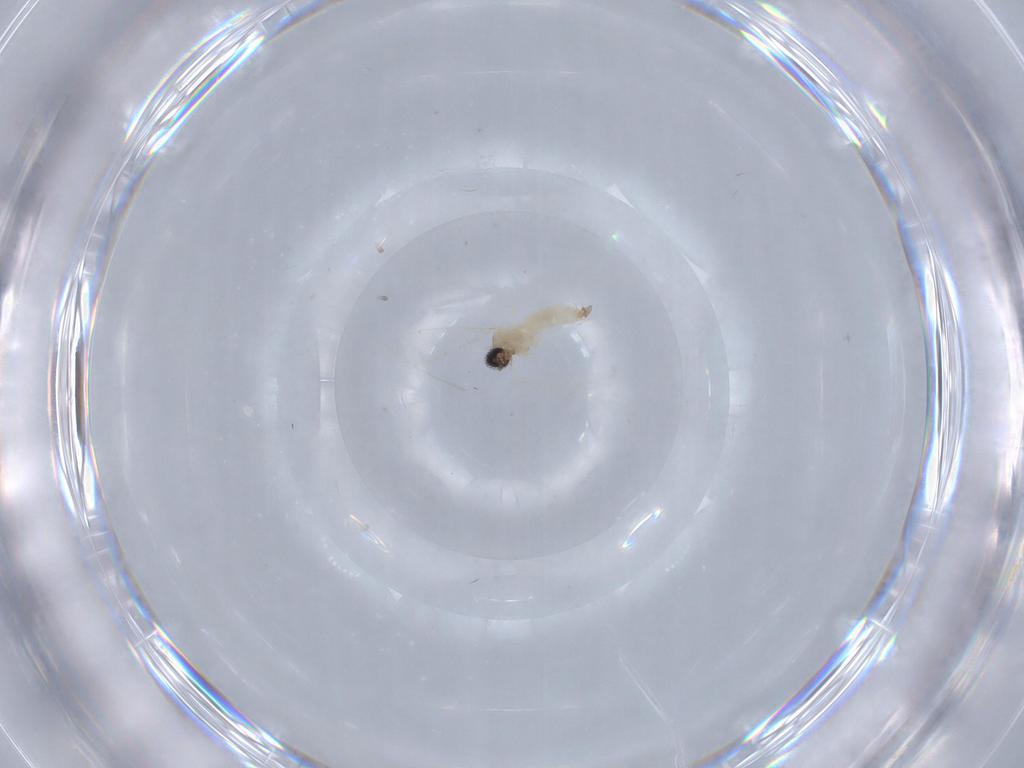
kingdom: Animalia
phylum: Arthropoda
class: Insecta
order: Diptera
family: Cecidomyiidae
